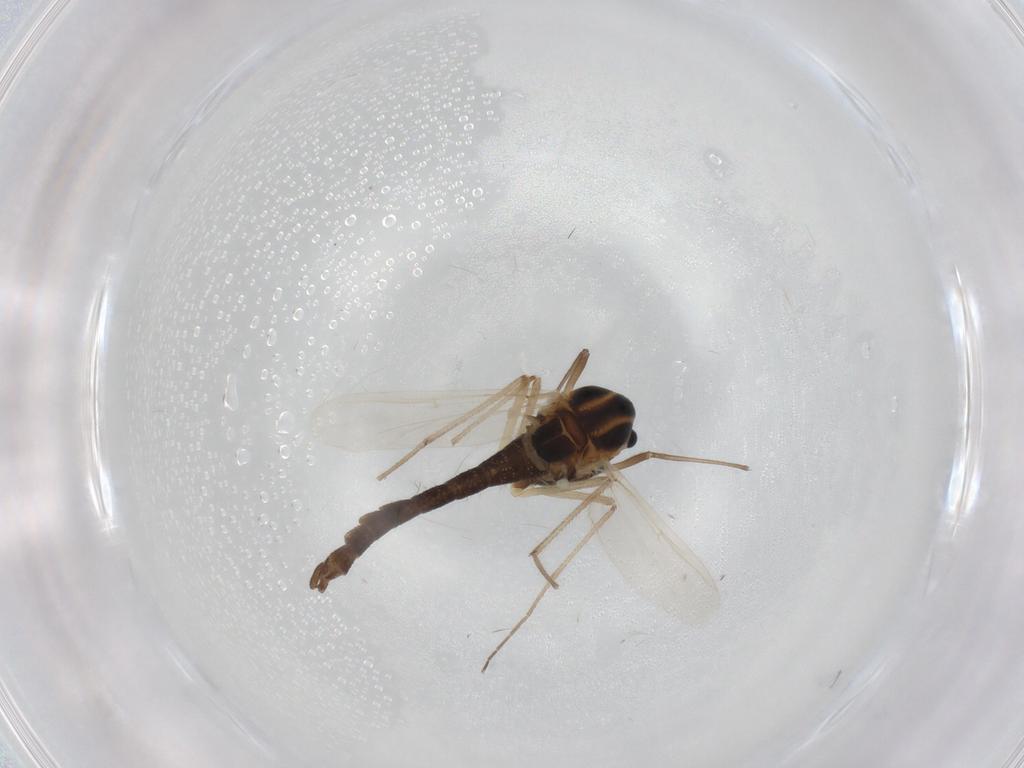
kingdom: Animalia
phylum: Arthropoda
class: Insecta
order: Diptera
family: Chironomidae
